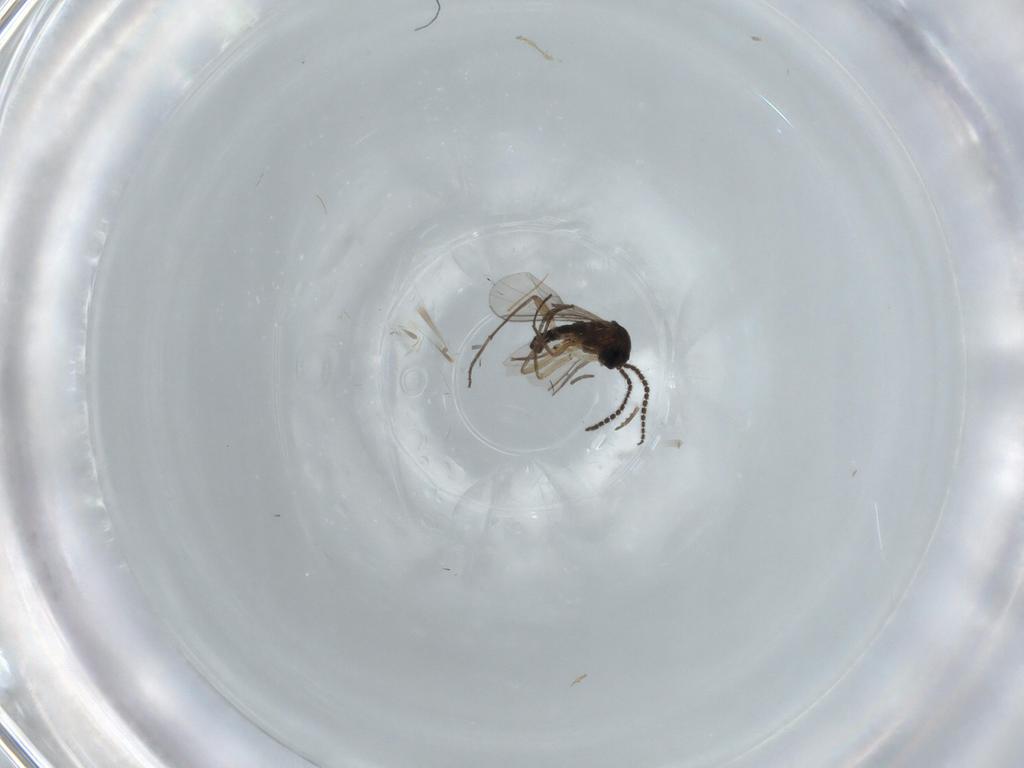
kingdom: Animalia
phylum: Arthropoda
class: Insecta
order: Diptera
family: Sciaridae
